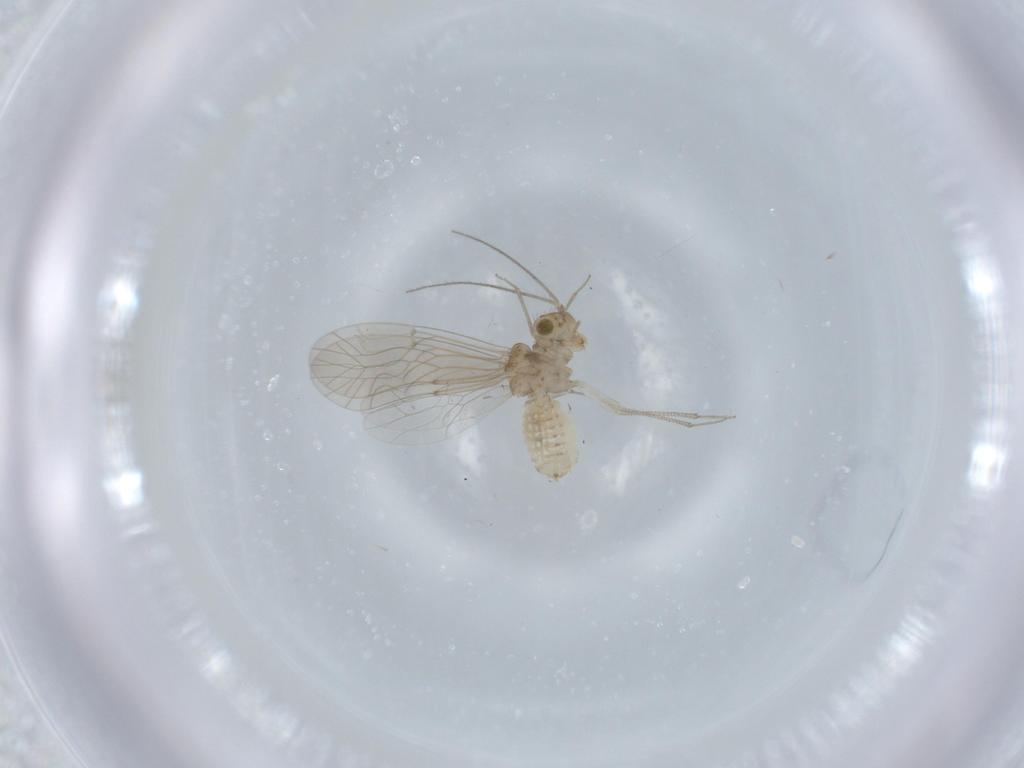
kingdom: Animalia
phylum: Arthropoda
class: Insecta
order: Psocodea
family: Lachesillidae
